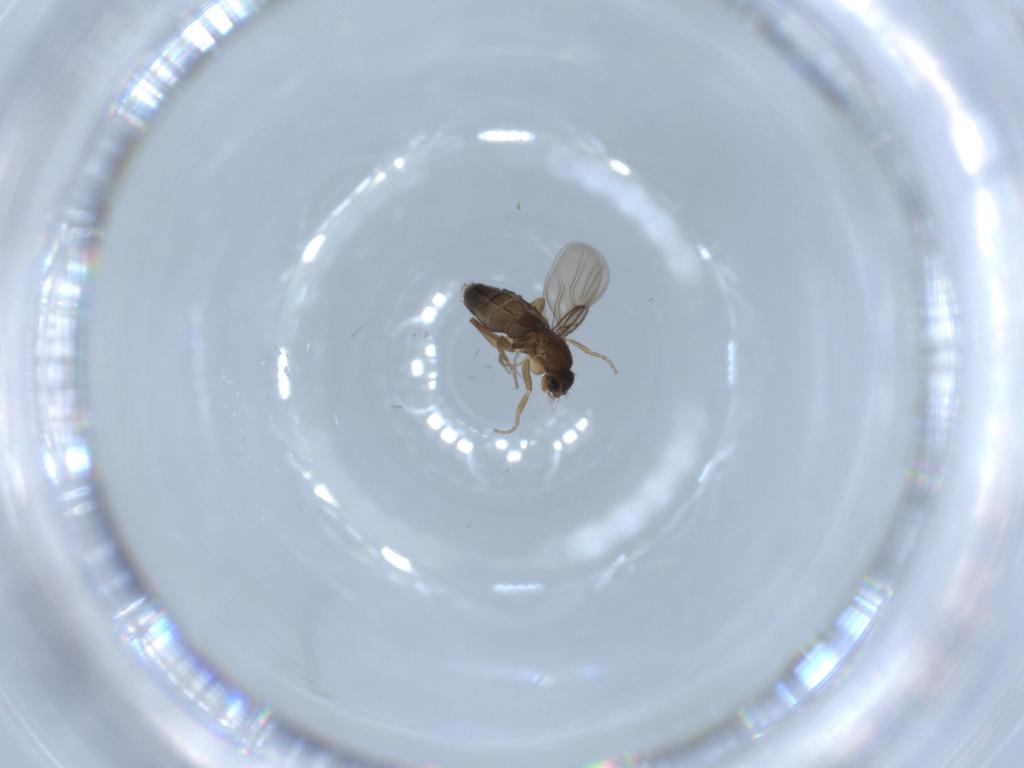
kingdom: Animalia
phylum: Arthropoda
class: Insecta
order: Diptera
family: Phoridae
